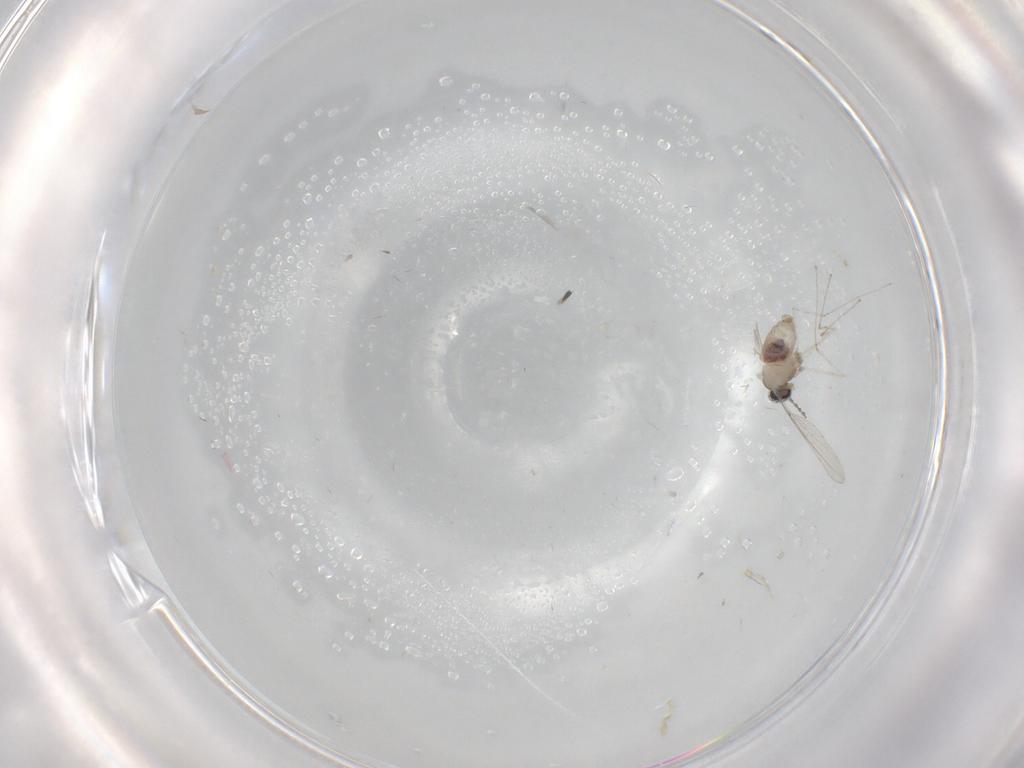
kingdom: Animalia
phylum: Arthropoda
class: Insecta
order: Diptera
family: Cecidomyiidae
